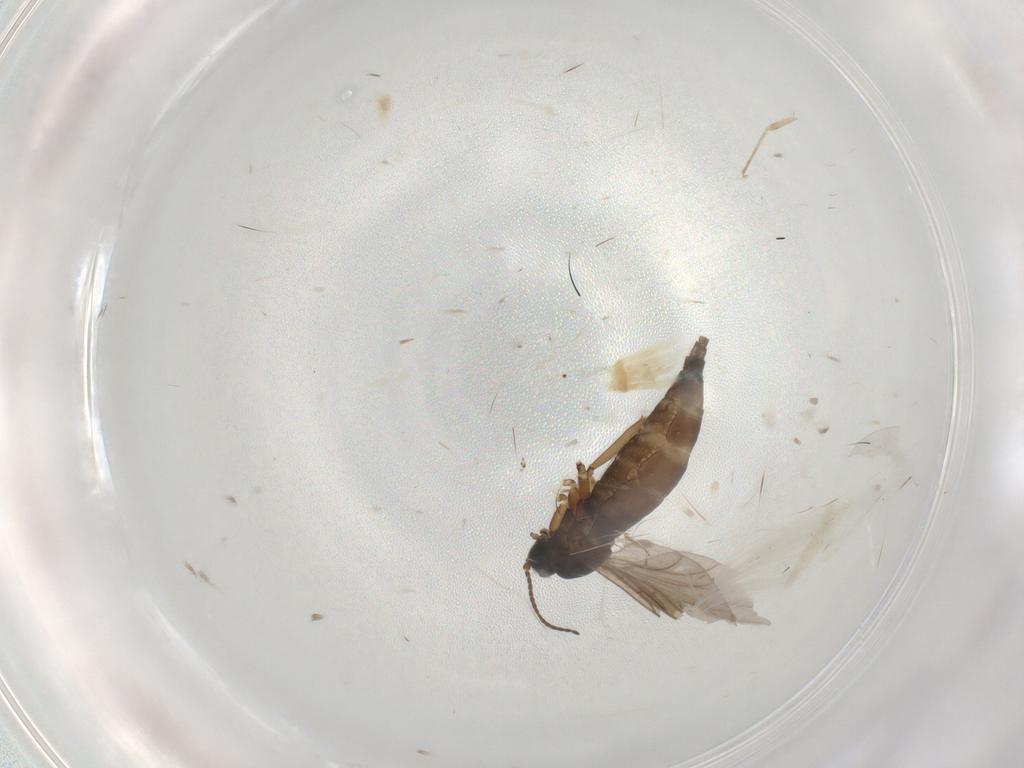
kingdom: Animalia
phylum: Arthropoda
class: Insecta
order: Diptera
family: Sciaridae
